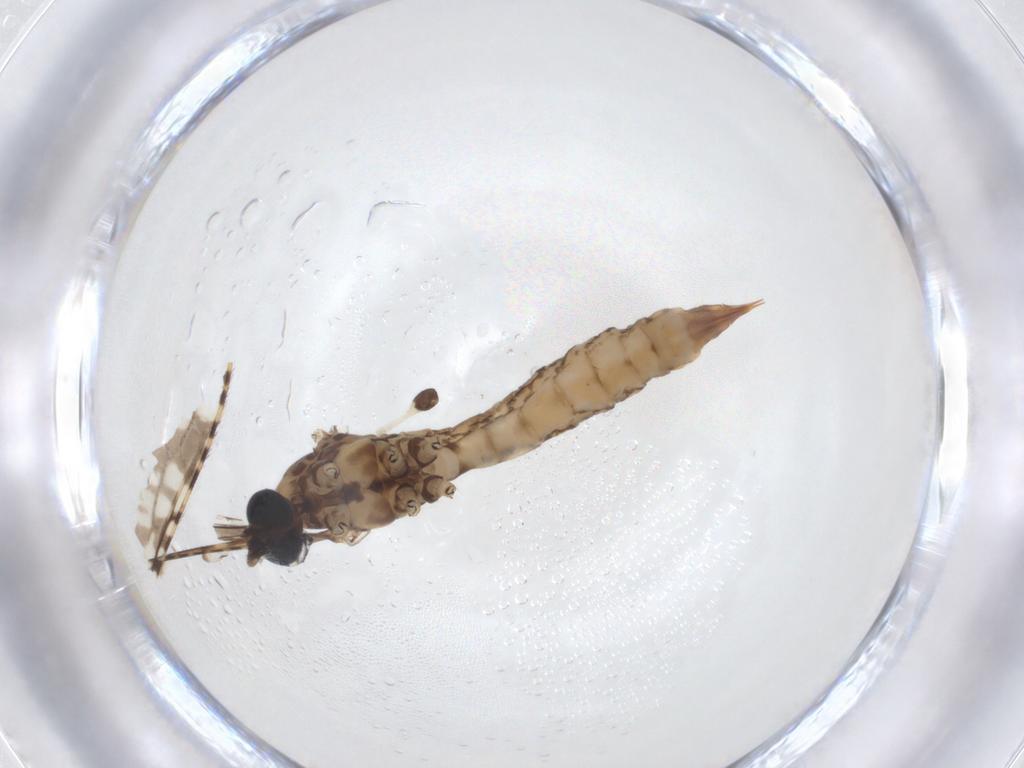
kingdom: Animalia
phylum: Arthropoda
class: Insecta
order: Diptera
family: Limoniidae
